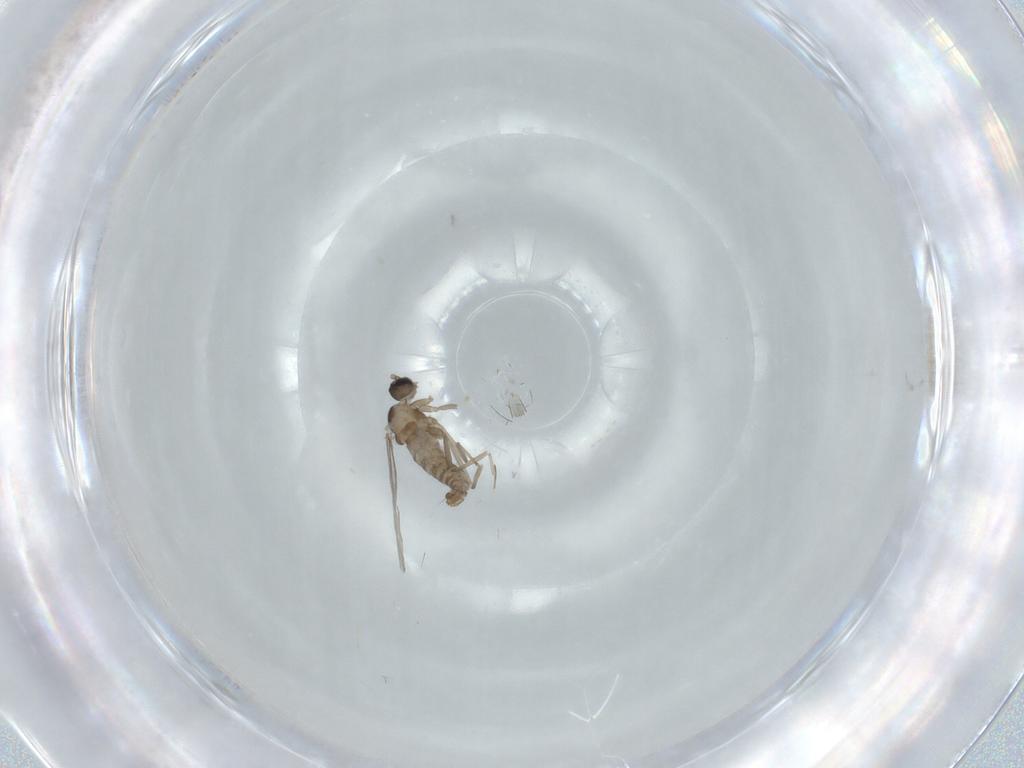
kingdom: Animalia
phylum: Arthropoda
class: Insecta
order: Diptera
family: Cecidomyiidae
